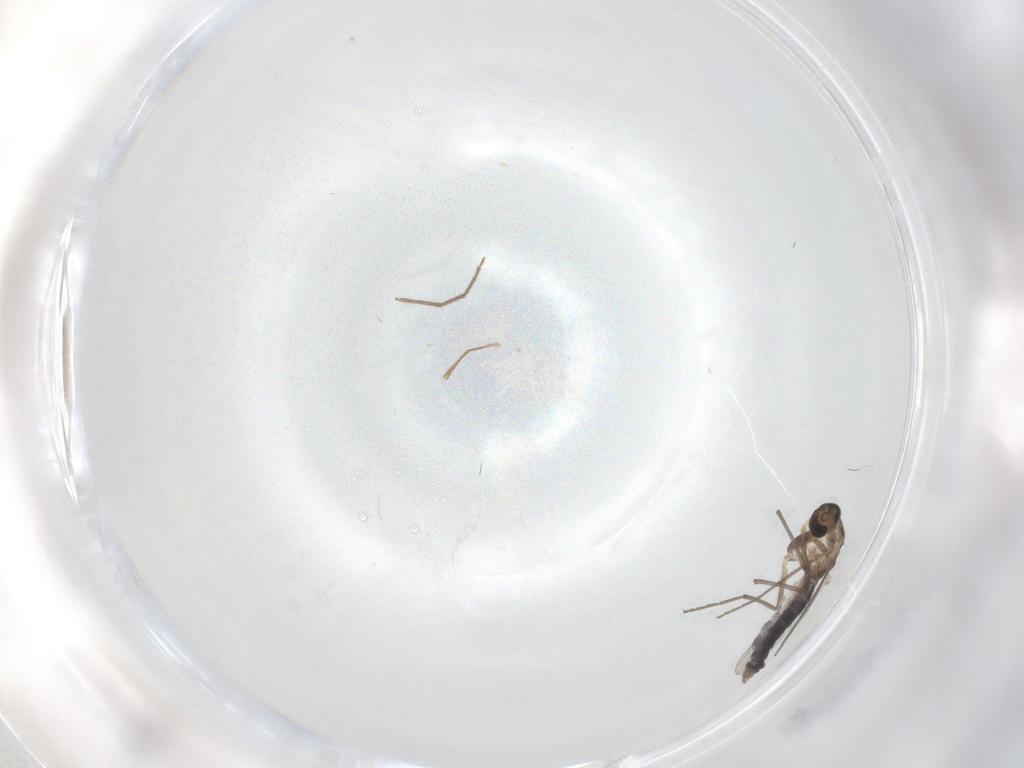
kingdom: Animalia
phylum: Arthropoda
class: Insecta
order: Diptera
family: Chironomidae
